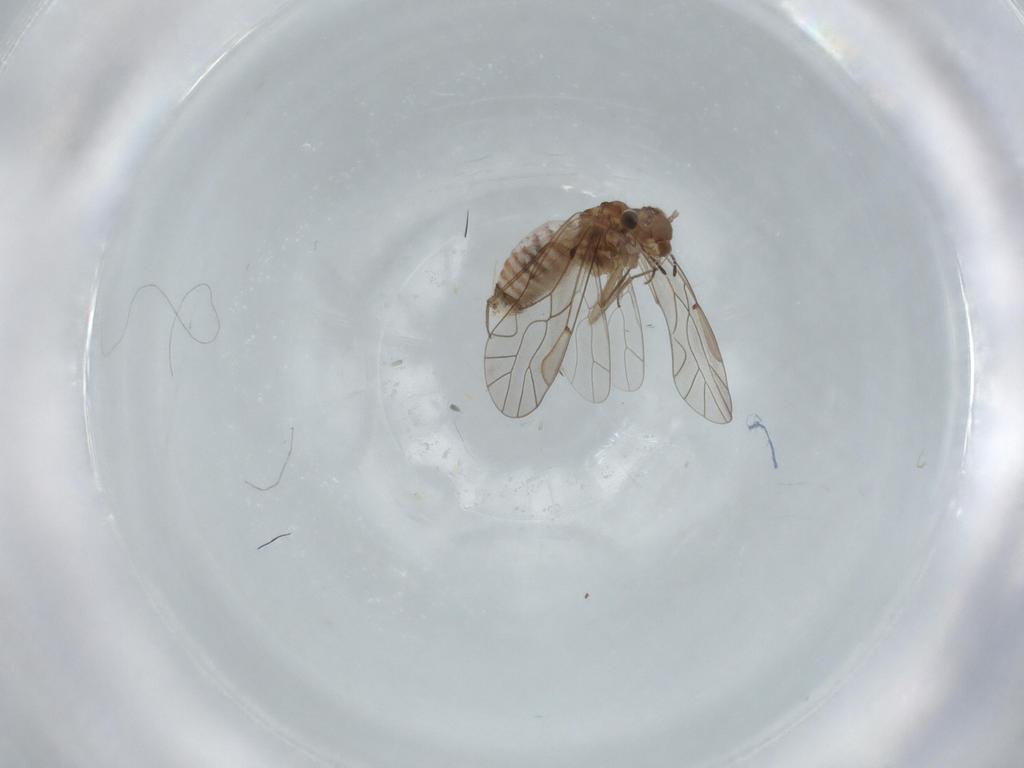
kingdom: Animalia
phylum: Arthropoda
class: Insecta
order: Psocodea
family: Lachesillidae
